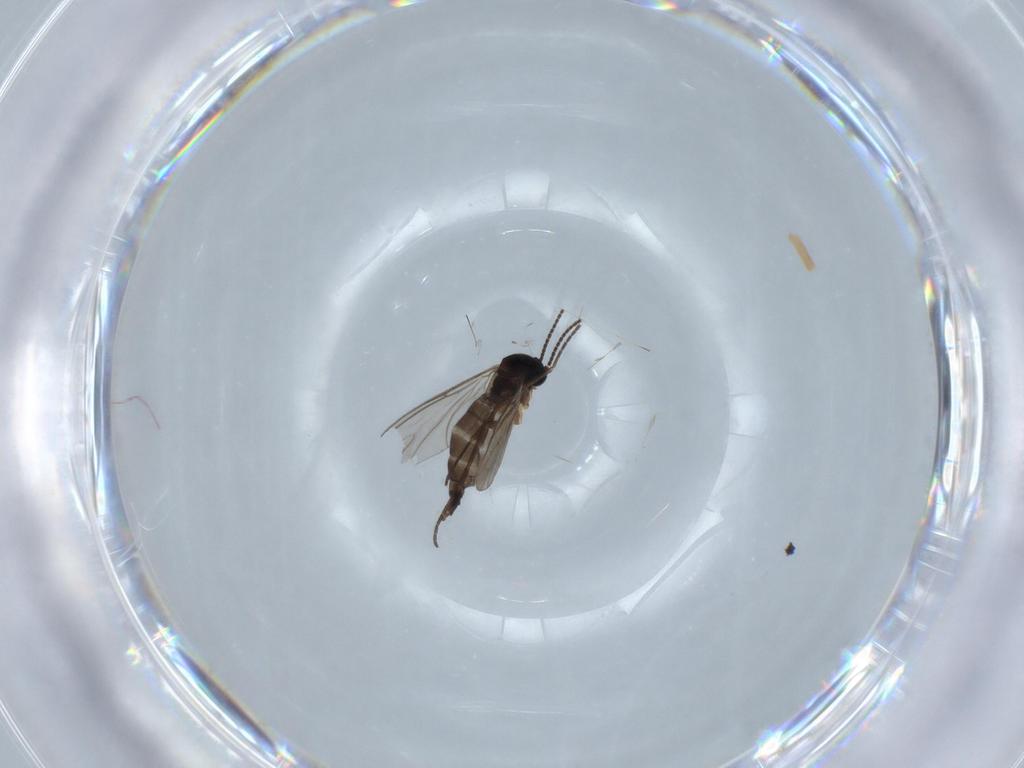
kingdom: Animalia
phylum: Arthropoda
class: Insecta
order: Diptera
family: Sciaridae
